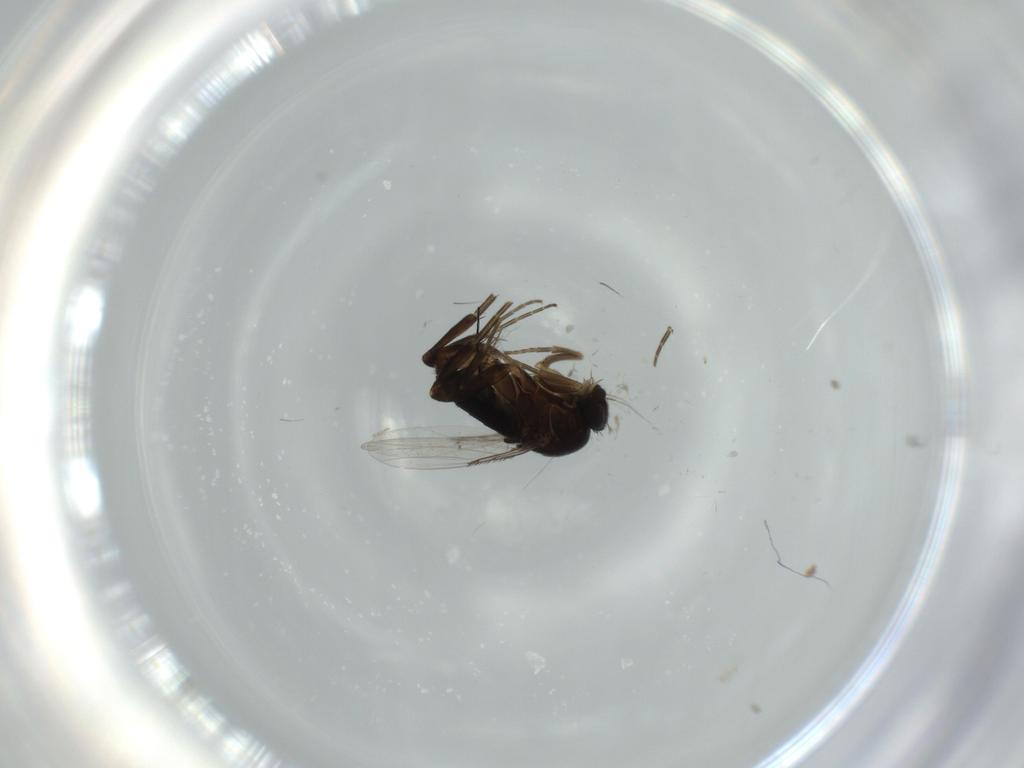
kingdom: Animalia
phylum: Arthropoda
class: Insecta
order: Diptera
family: Phoridae
